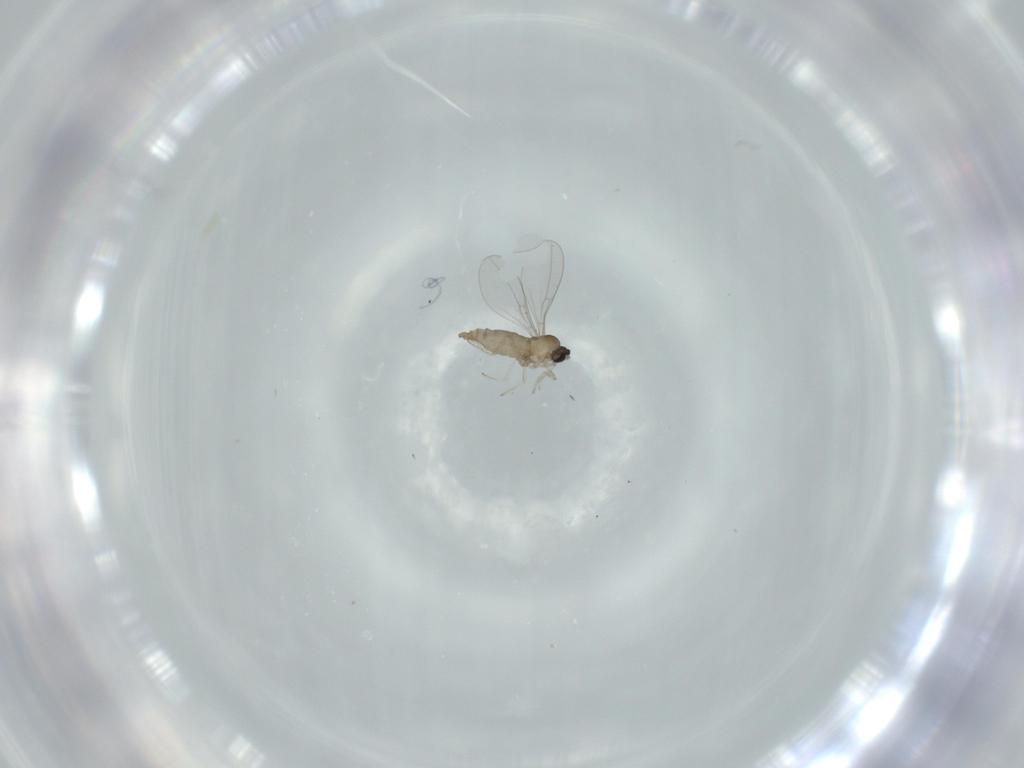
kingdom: Animalia
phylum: Arthropoda
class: Insecta
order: Diptera
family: Cecidomyiidae
